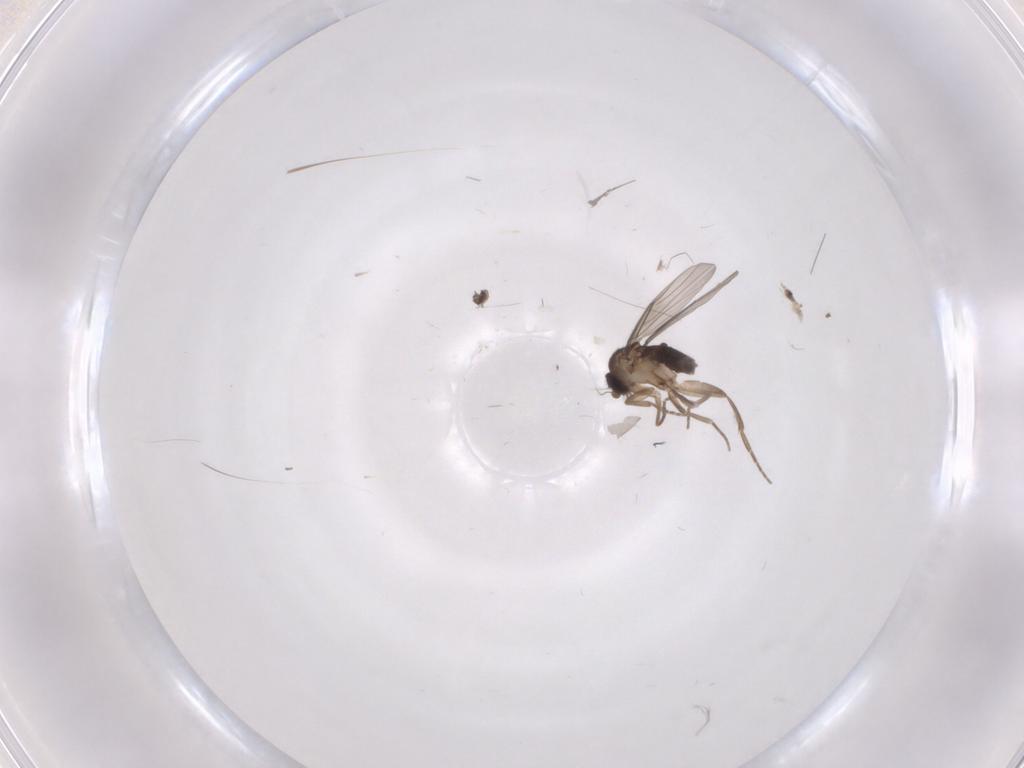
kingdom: Animalia
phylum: Arthropoda
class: Insecta
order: Diptera
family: Phoridae
